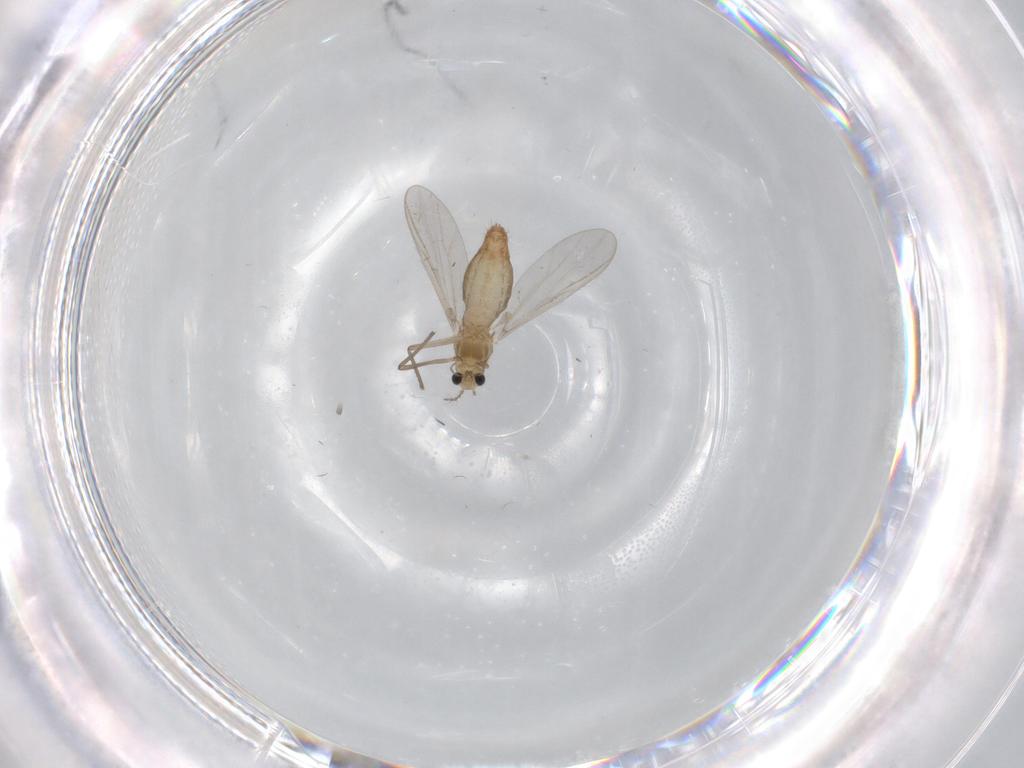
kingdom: Animalia
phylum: Arthropoda
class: Insecta
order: Diptera
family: Chironomidae
